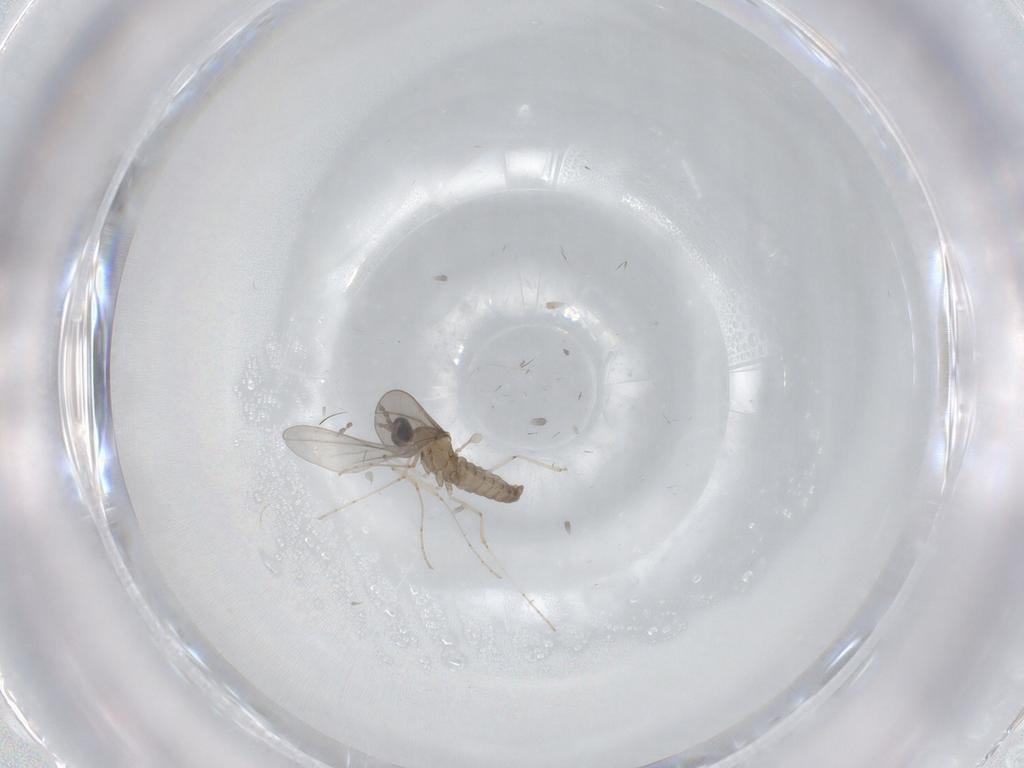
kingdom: Animalia
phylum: Arthropoda
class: Insecta
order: Diptera
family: Cecidomyiidae
